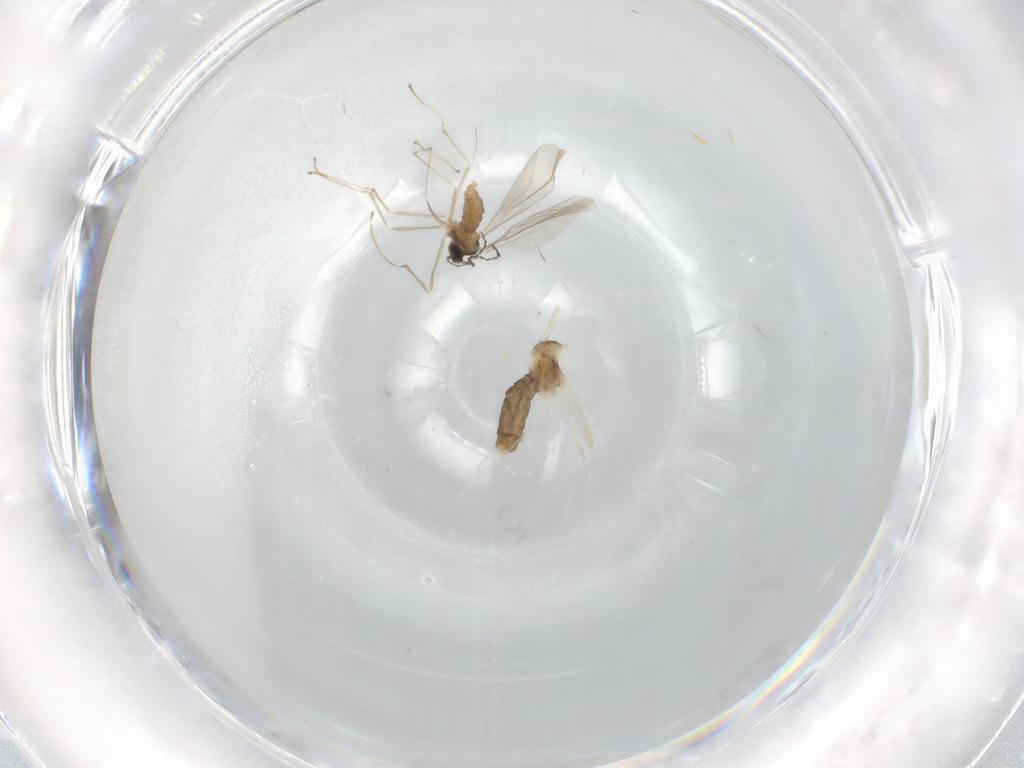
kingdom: Animalia
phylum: Arthropoda
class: Insecta
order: Diptera
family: Cecidomyiidae
